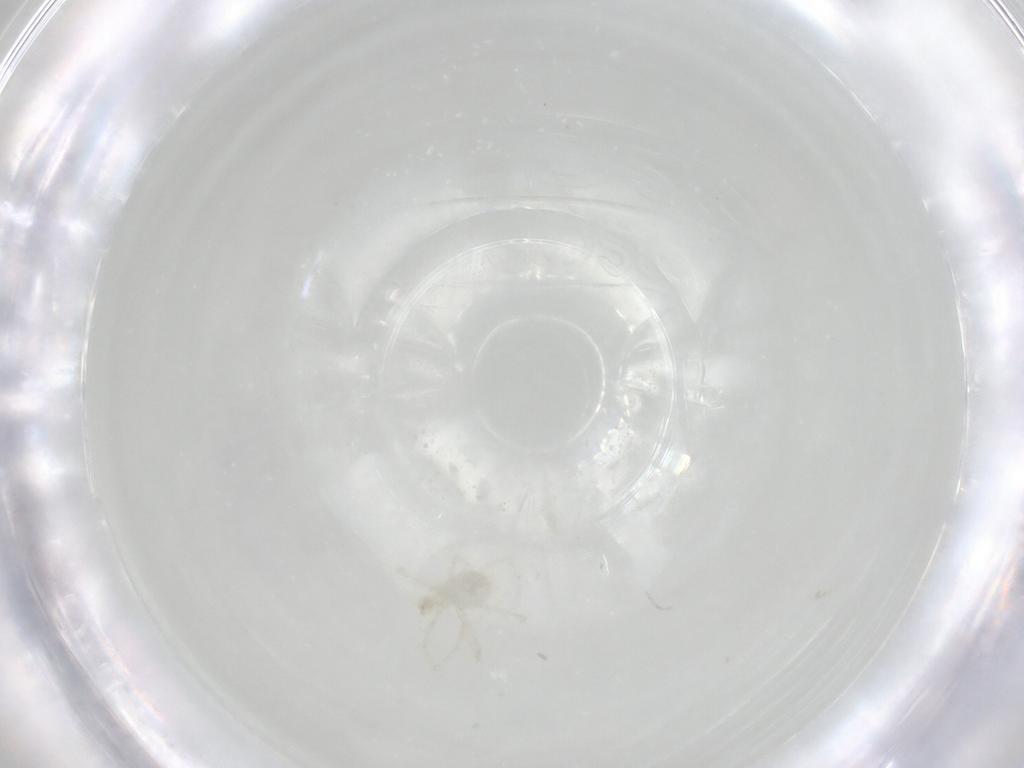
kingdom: Animalia
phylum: Arthropoda
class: Arachnida
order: Trombidiformes
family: Erythraeidae
